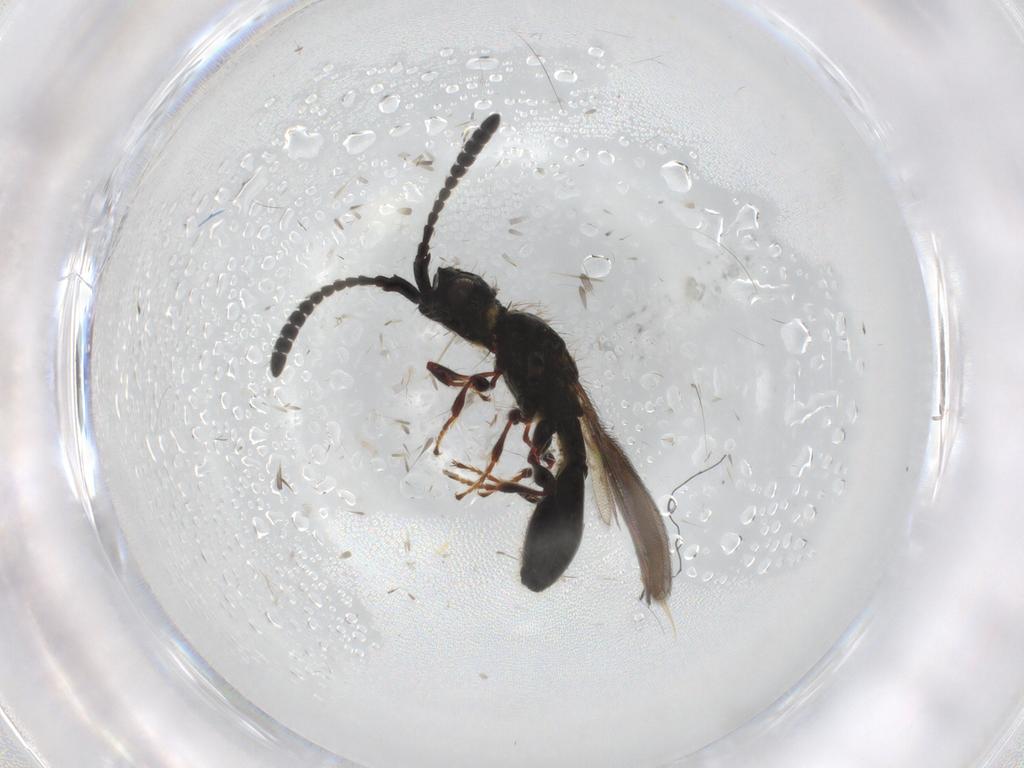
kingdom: Animalia
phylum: Arthropoda
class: Insecta
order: Hymenoptera
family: Diapriidae
